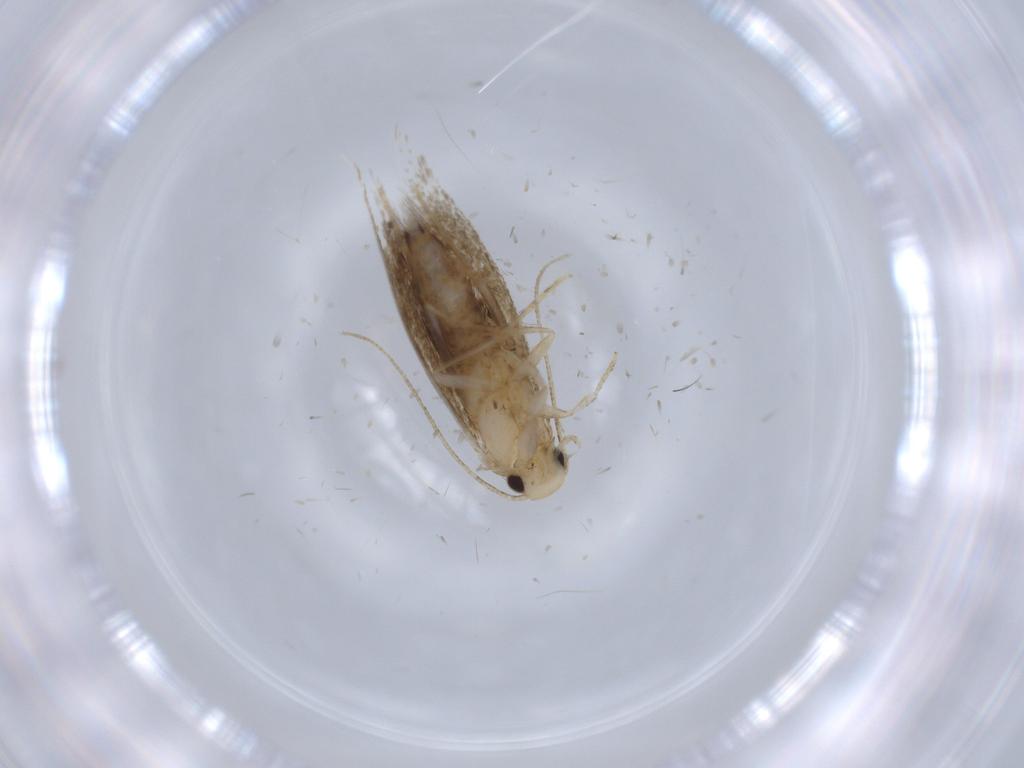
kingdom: Animalia
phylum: Arthropoda
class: Insecta
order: Lepidoptera
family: Tineidae
